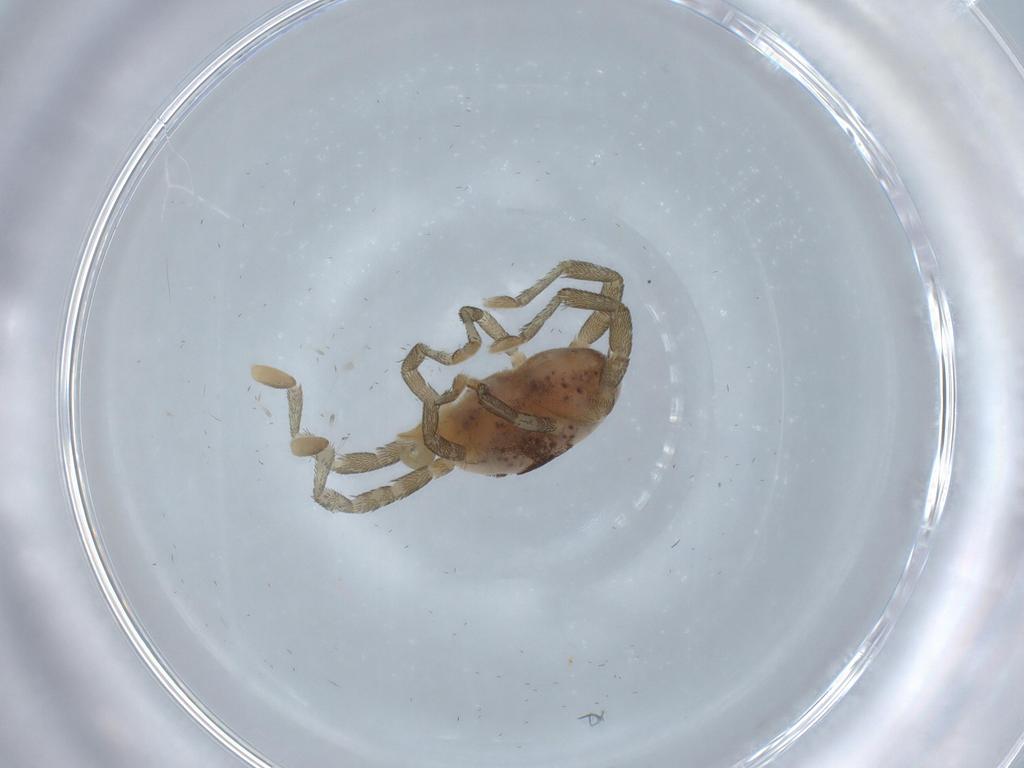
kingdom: Animalia
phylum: Arthropoda
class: Arachnida
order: Trombidiformes
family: Erythraeidae
